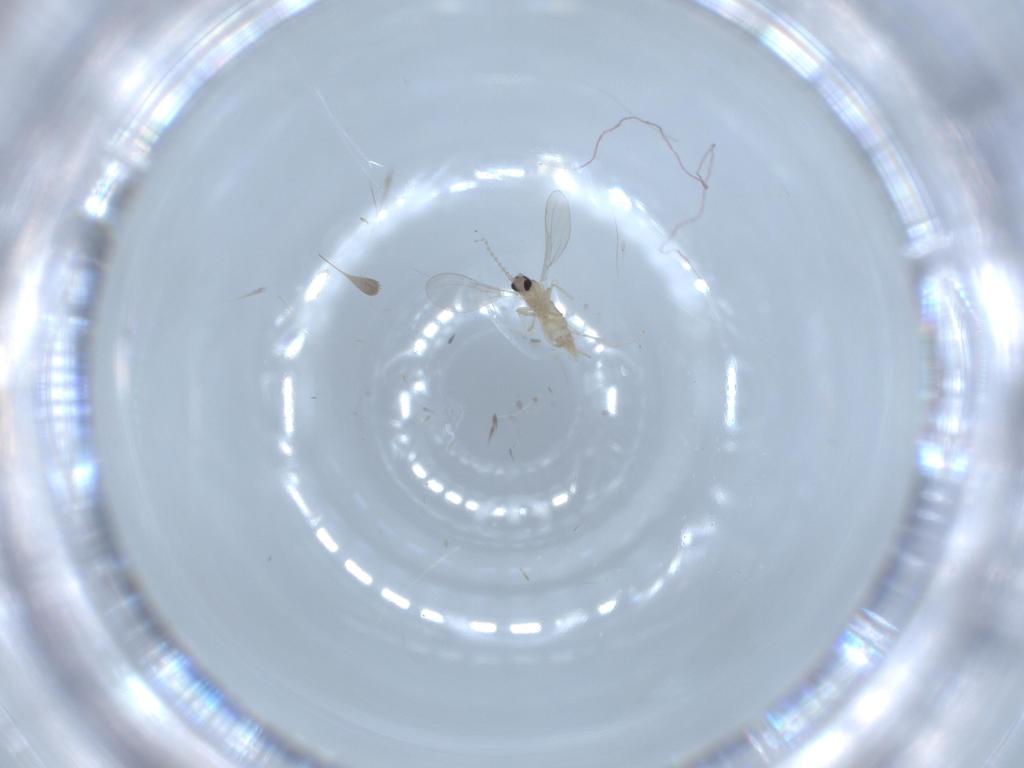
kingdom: Animalia
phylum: Arthropoda
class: Insecta
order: Diptera
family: Cecidomyiidae
